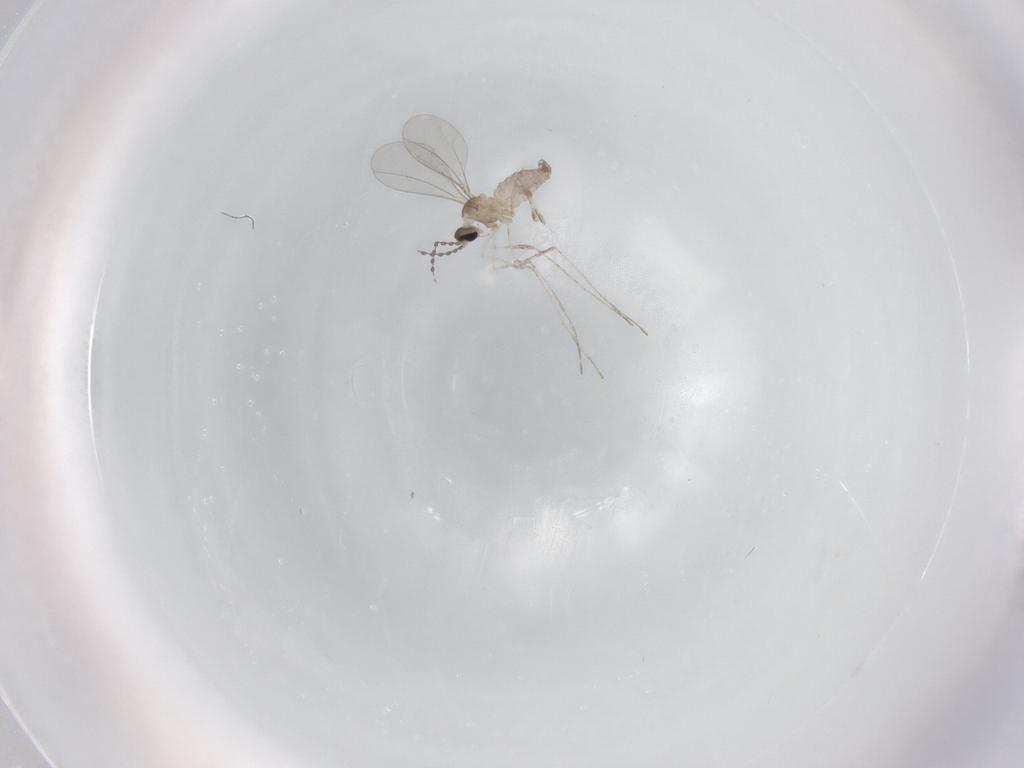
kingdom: Animalia
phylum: Arthropoda
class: Insecta
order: Diptera
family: Cecidomyiidae
